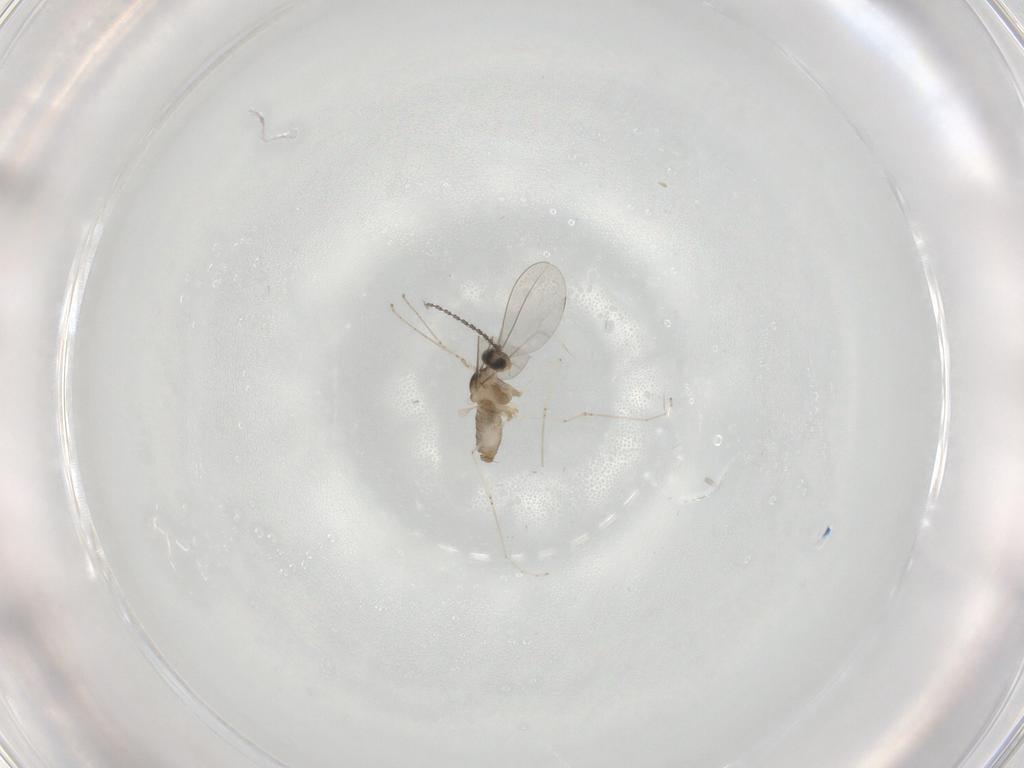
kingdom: Animalia
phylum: Arthropoda
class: Insecta
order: Diptera
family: Cecidomyiidae
